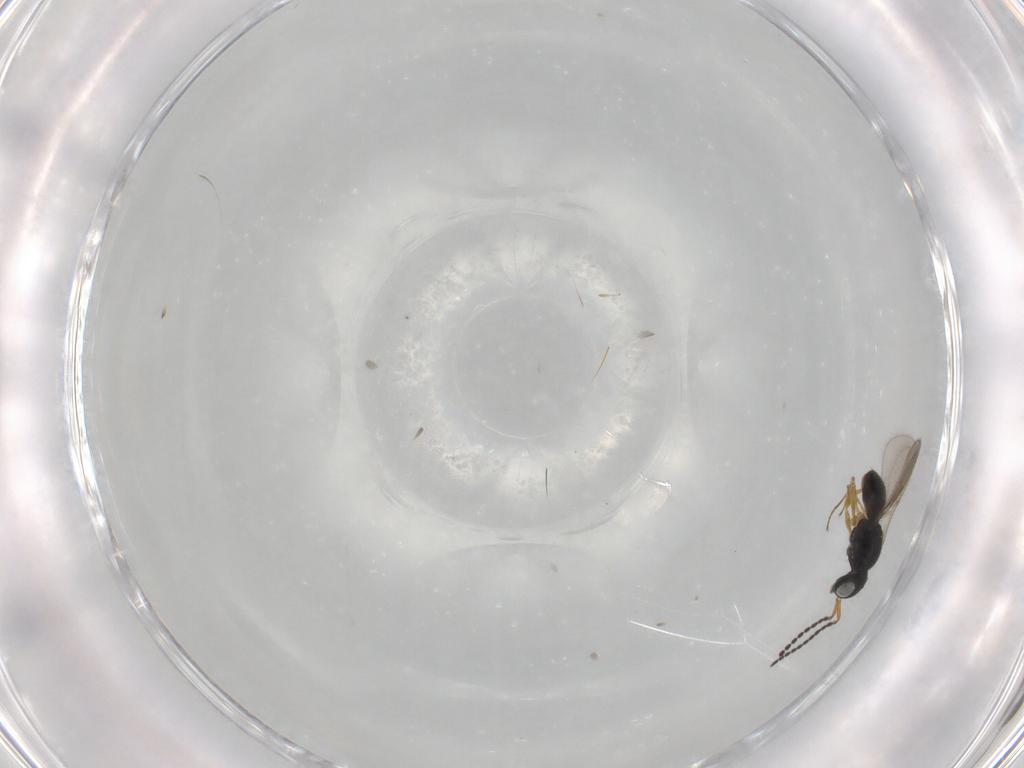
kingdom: Animalia
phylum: Arthropoda
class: Insecta
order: Hymenoptera
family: Scelionidae
